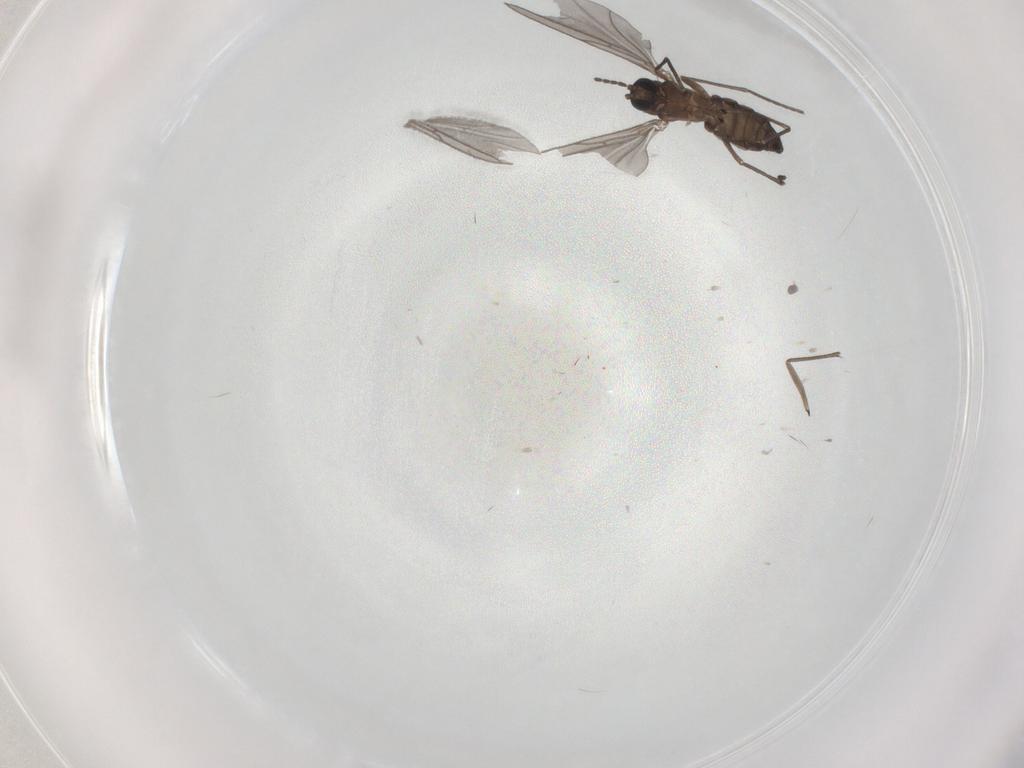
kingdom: Animalia
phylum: Arthropoda
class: Insecta
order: Diptera
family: Sciaridae
